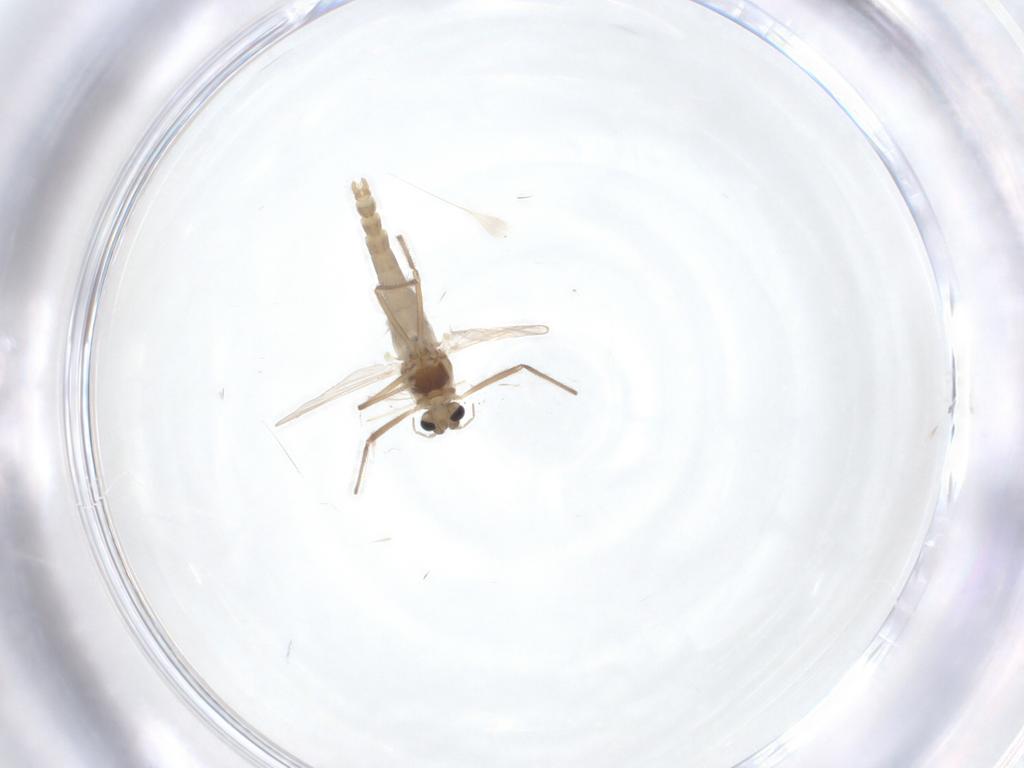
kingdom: Animalia
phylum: Arthropoda
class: Insecta
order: Diptera
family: Chironomidae
